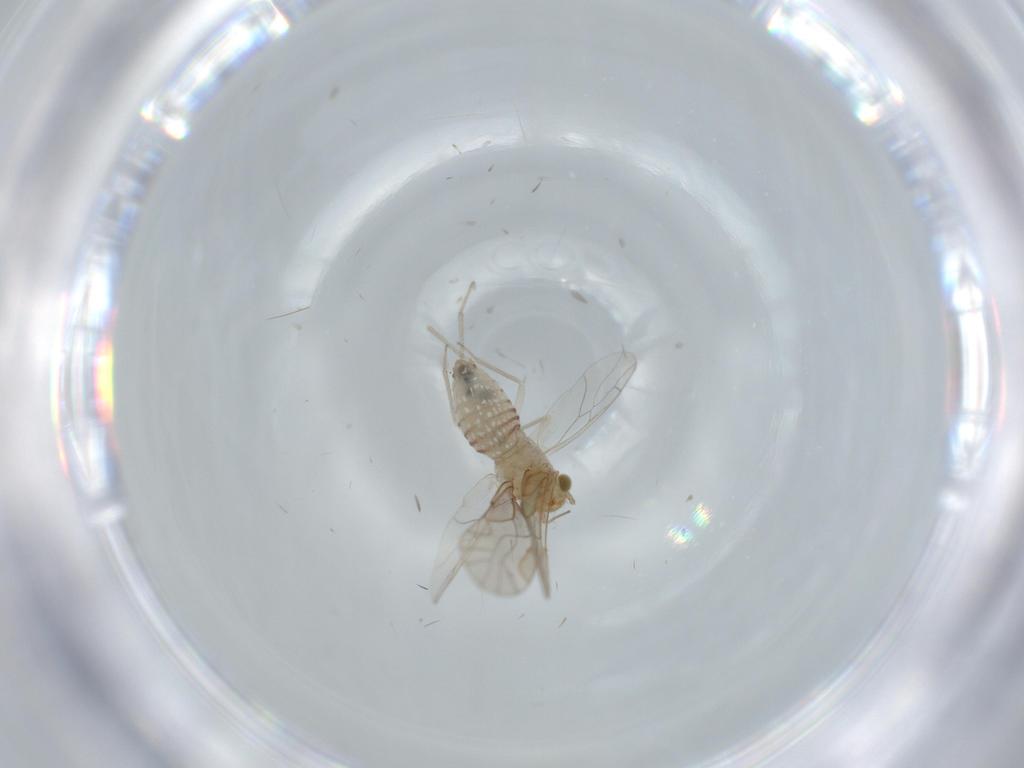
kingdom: Animalia
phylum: Arthropoda
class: Insecta
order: Psocodea
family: Lachesillidae
